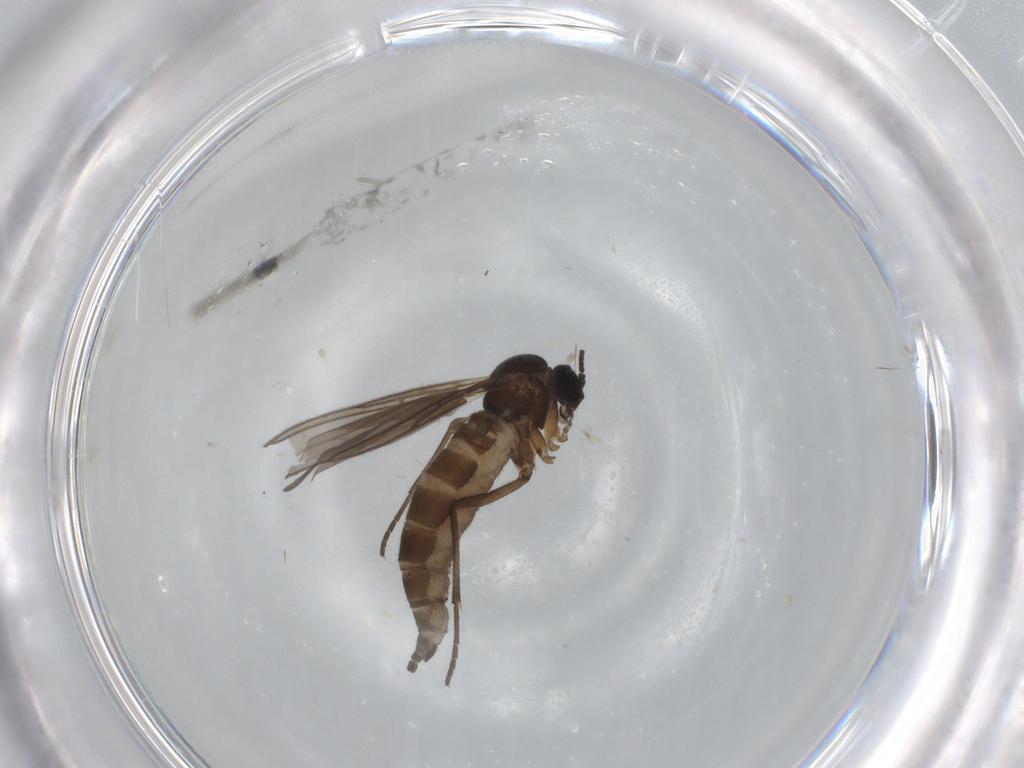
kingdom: Animalia
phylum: Arthropoda
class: Insecta
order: Diptera
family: Sciaridae
